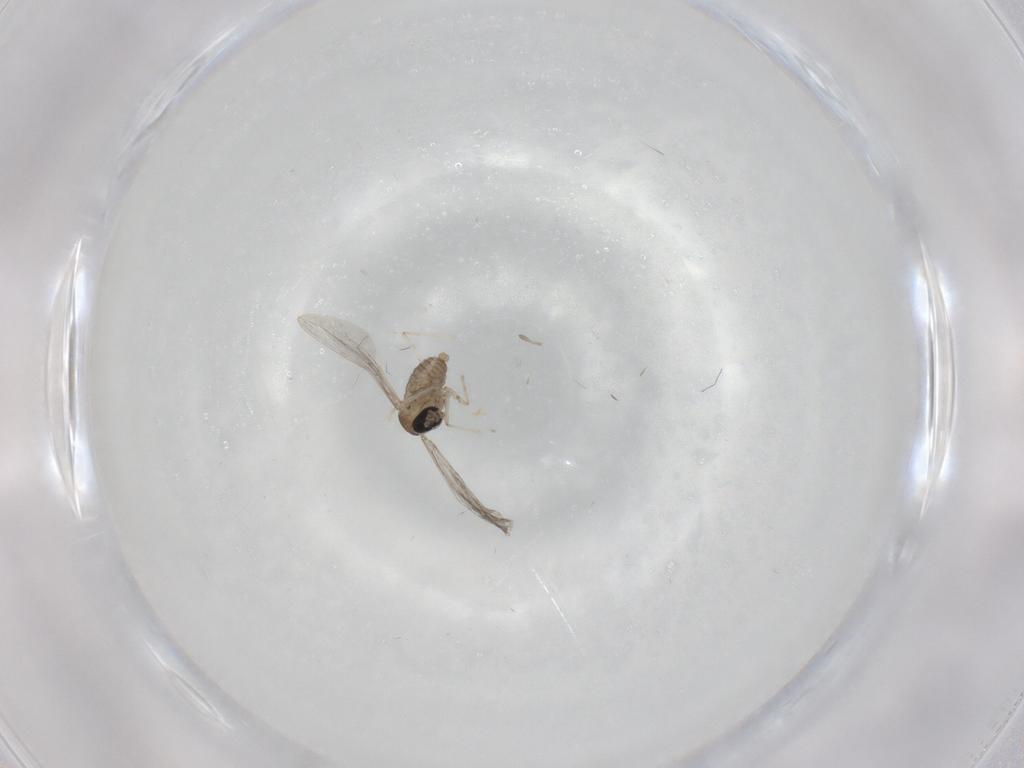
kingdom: Animalia
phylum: Arthropoda
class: Insecta
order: Diptera
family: Cecidomyiidae
